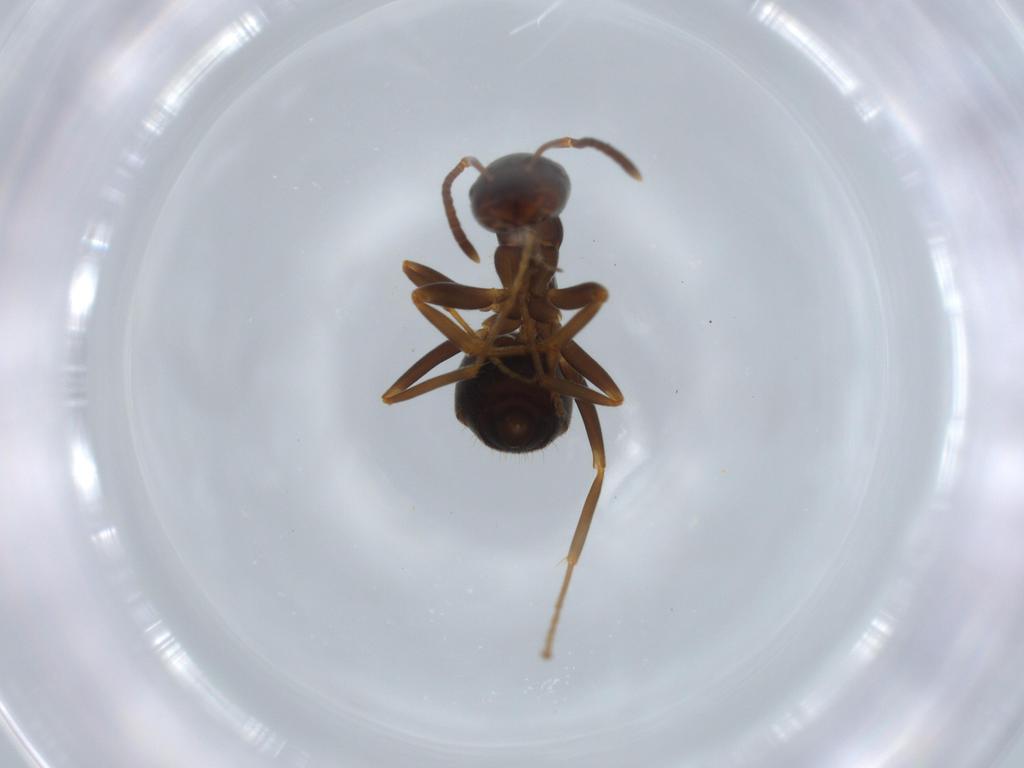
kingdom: Animalia
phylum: Arthropoda
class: Insecta
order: Hymenoptera
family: Formicidae
